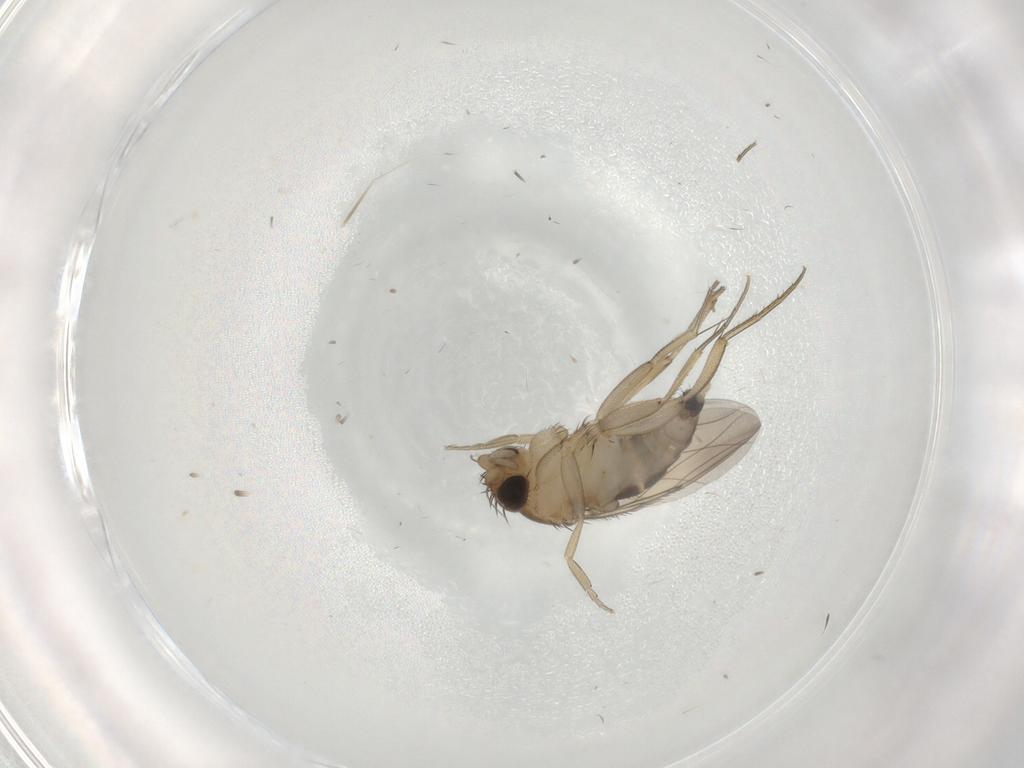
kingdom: Animalia
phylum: Arthropoda
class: Insecta
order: Diptera
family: Phoridae
